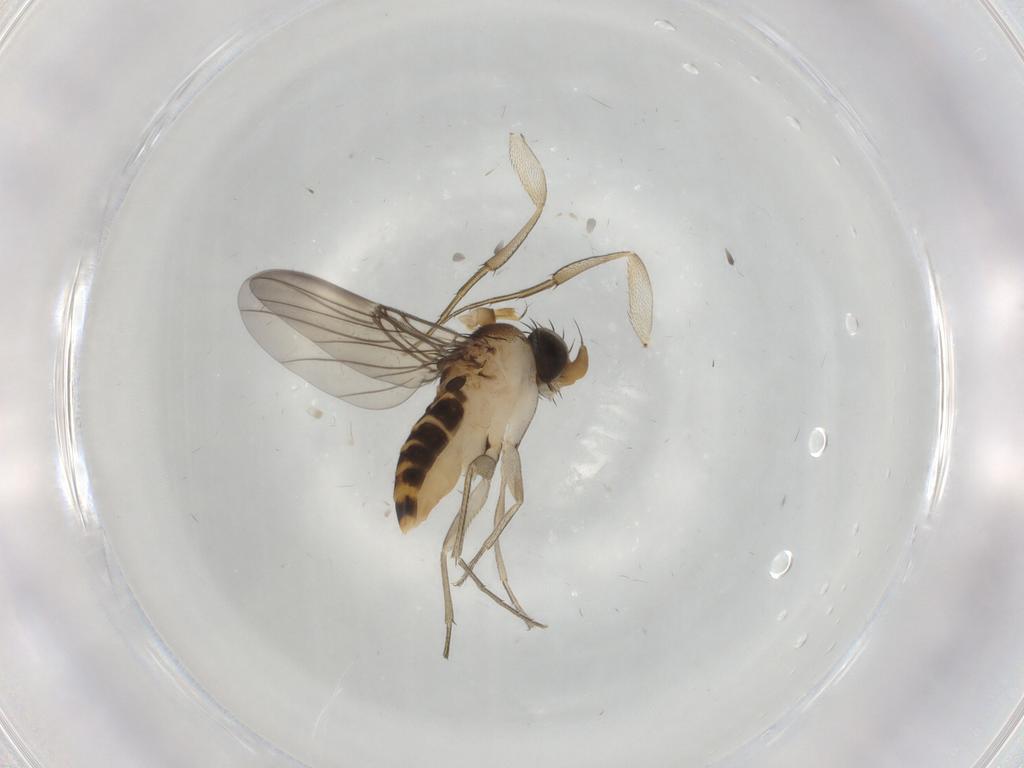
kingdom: Animalia
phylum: Arthropoda
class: Insecta
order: Diptera
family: Phoridae
